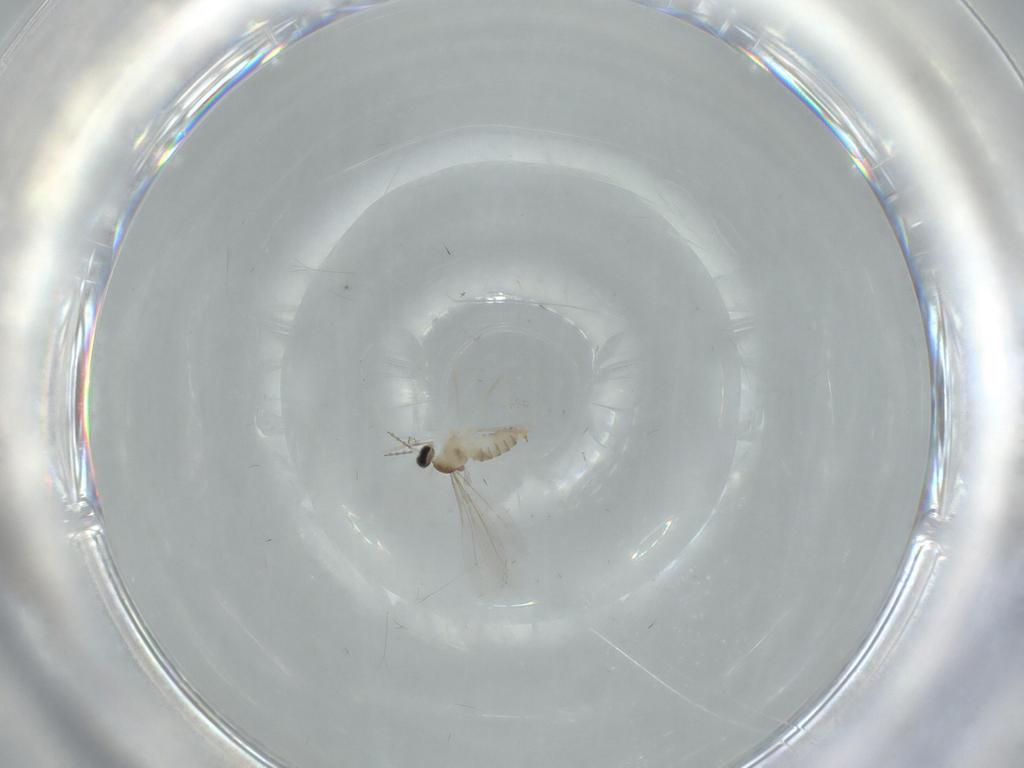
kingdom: Animalia
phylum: Arthropoda
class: Insecta
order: Diptera
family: Cecidomyiidae
